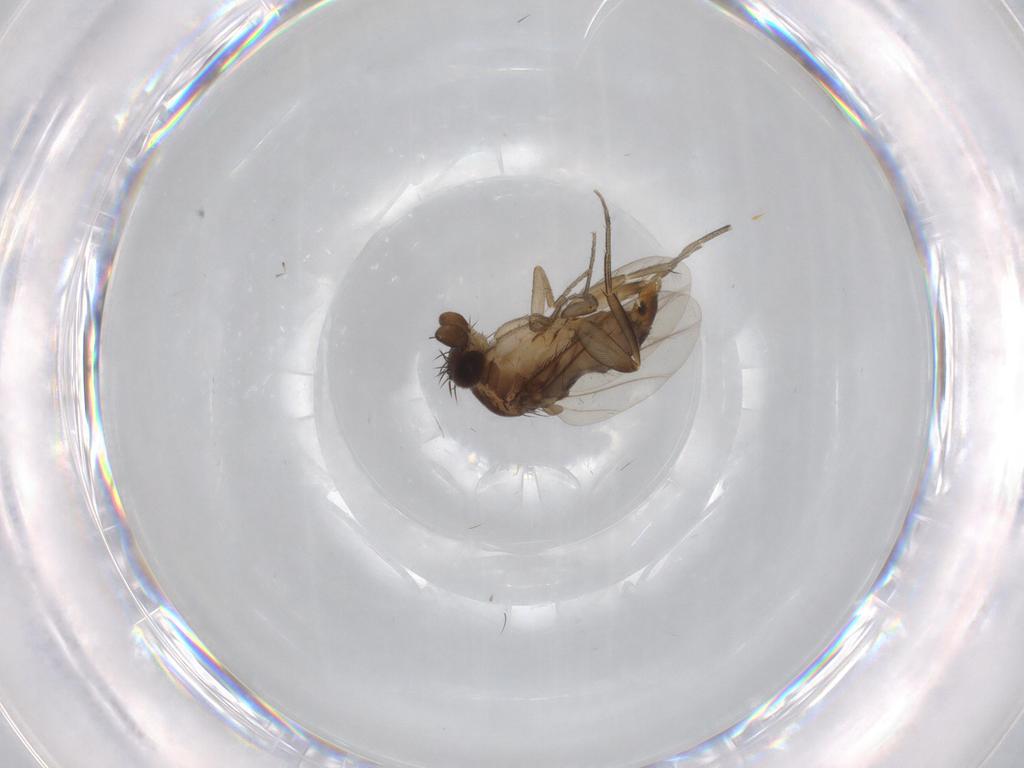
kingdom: Animalia
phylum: Arthropoda
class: Insecta
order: Diptera
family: Phoridae
